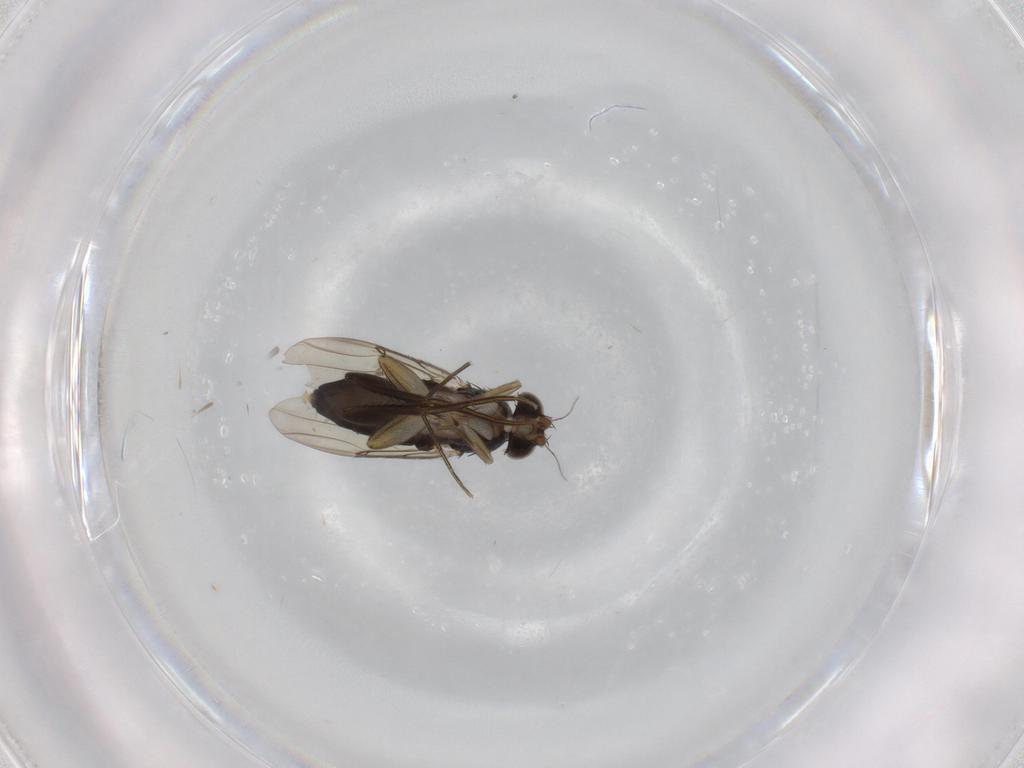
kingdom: Animalia
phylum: Arthropoda
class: Insecta
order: Diptera
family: Phoridae
